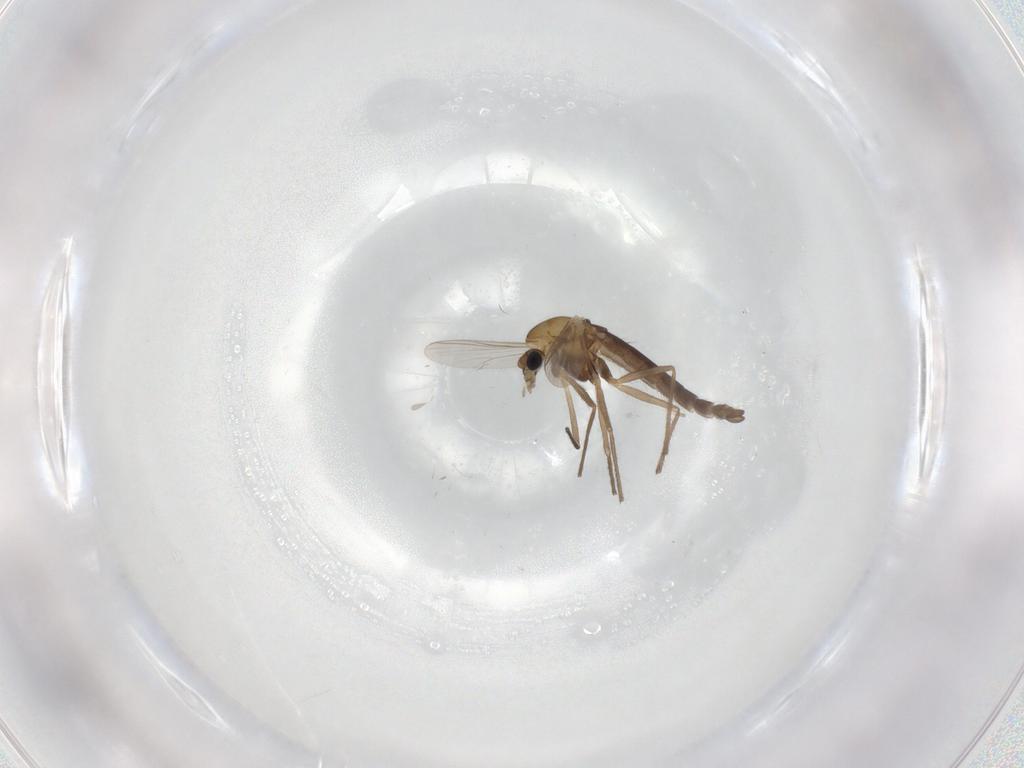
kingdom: Animalia
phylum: Arthropoda
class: Insecta
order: Diptera
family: Chironomidae
